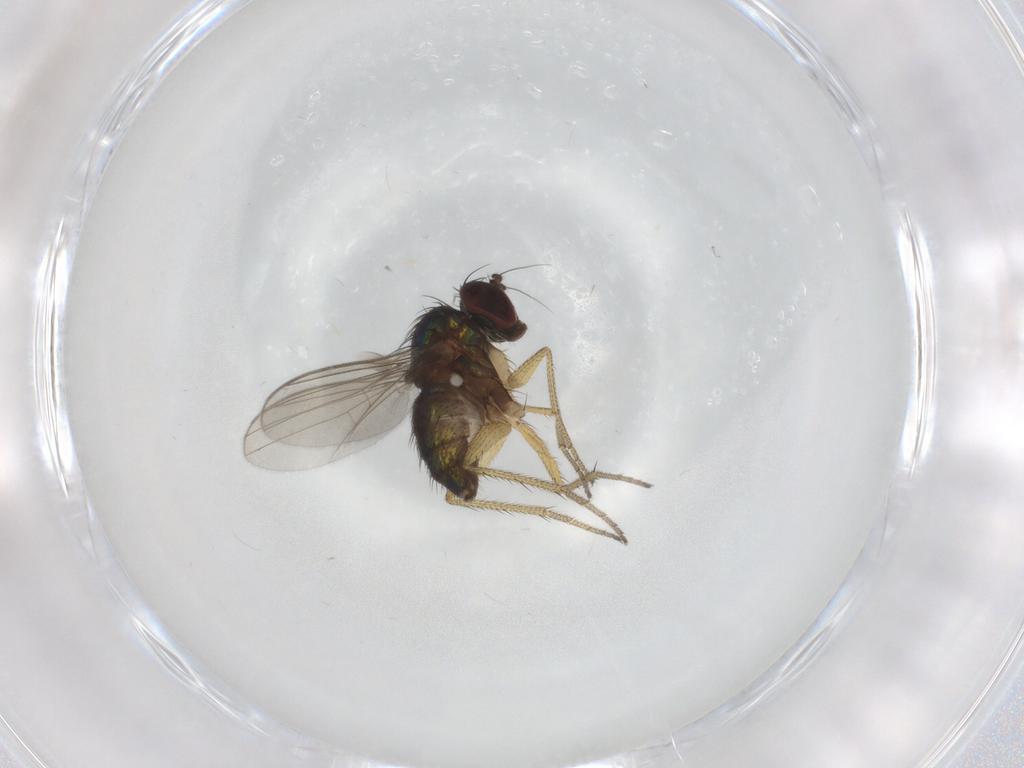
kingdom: Animalia
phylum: Arthropoda
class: Insecta
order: Diptera
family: Dolichopodidae
